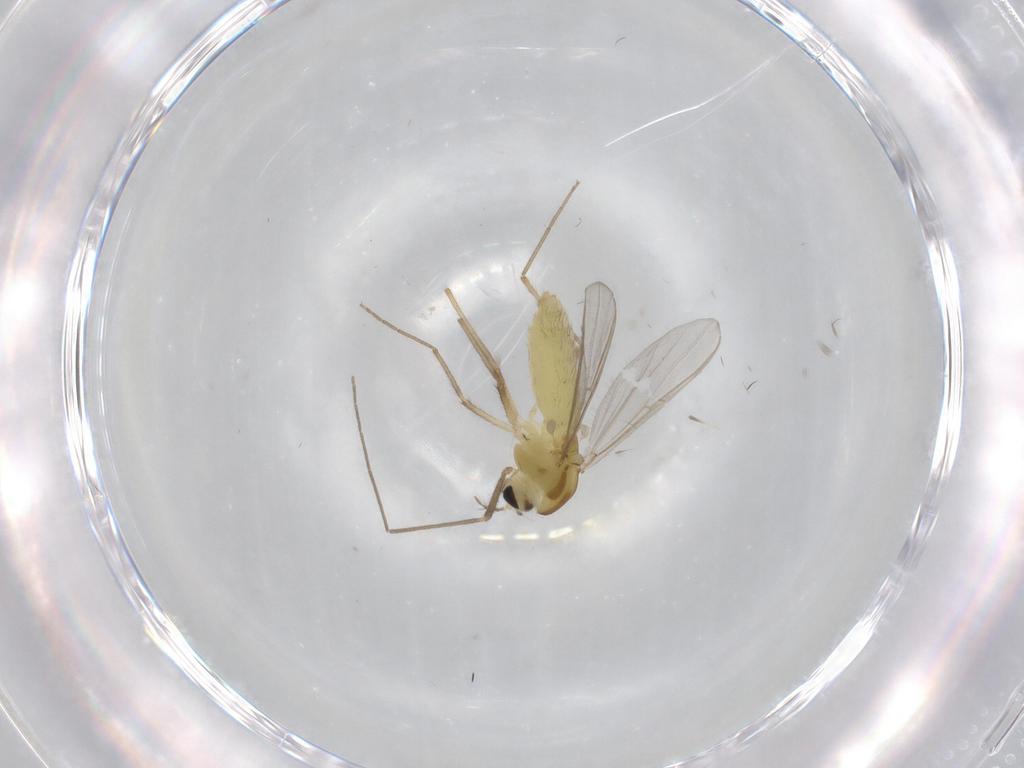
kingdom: Animalia
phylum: Arthropoda
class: Insecta
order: Diptera
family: Chironomidae
